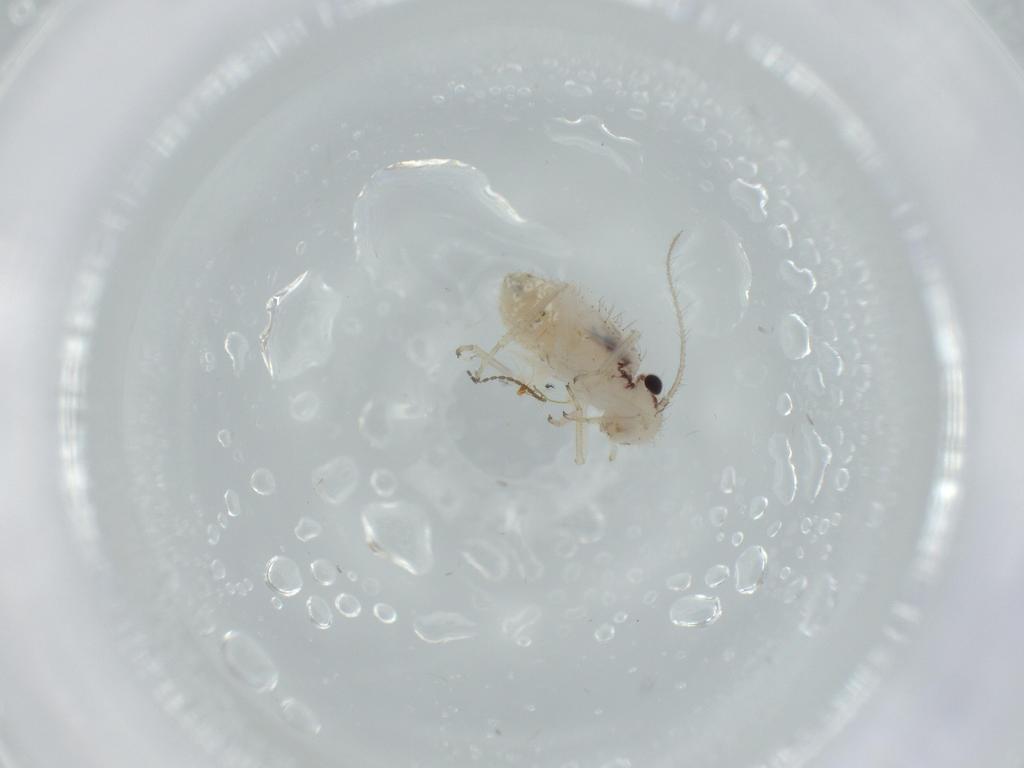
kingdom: Animalia
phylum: Arthropoda
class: Insecta
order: Psocodea
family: Pseudocaeciliidae
